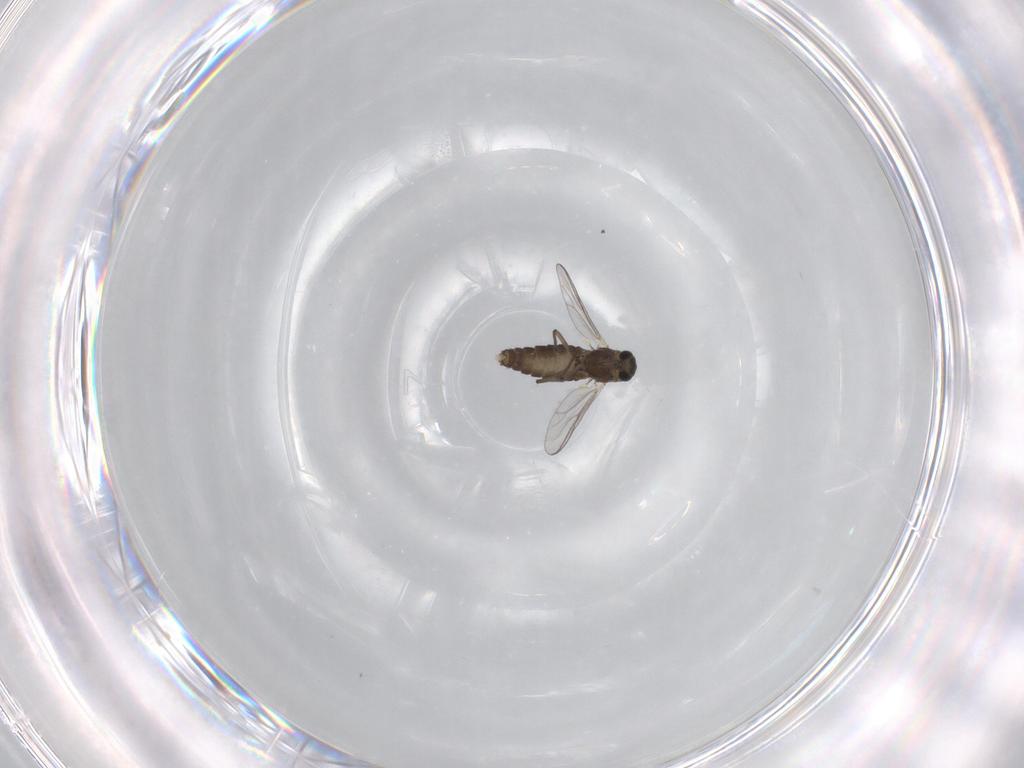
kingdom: Animalia
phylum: Arthropoda
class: Insecta
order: Diptera
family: Chironomidae
